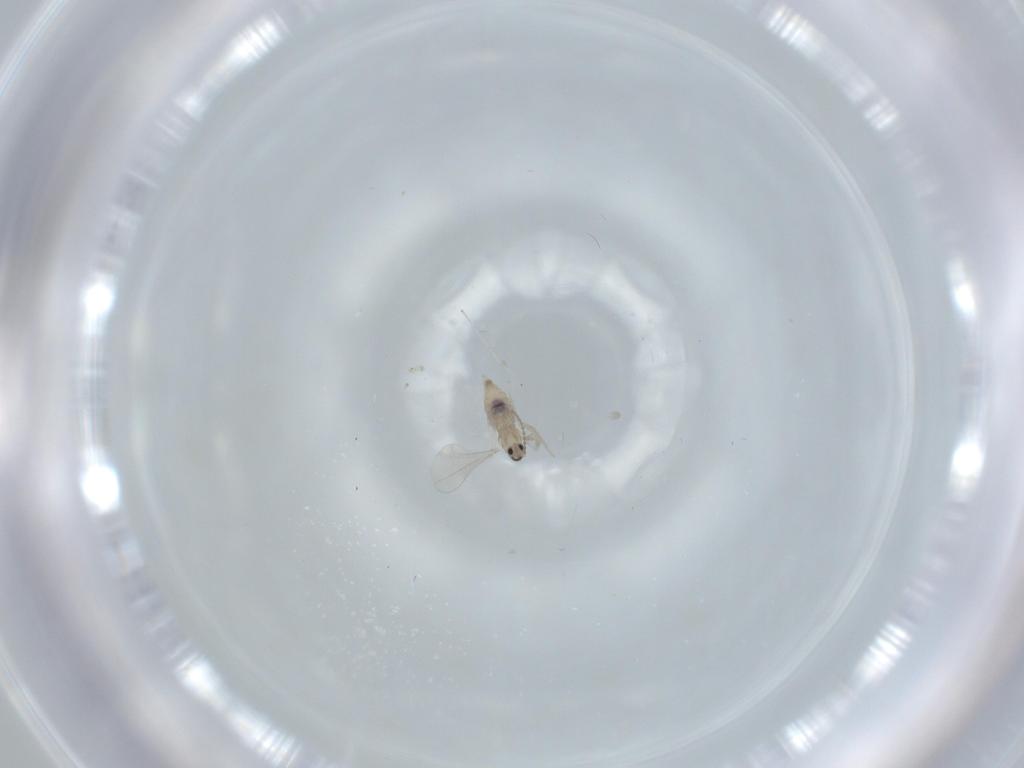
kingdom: Animalia
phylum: Arthropoda
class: Insecta
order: Diptera
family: Cecidomyiidae
